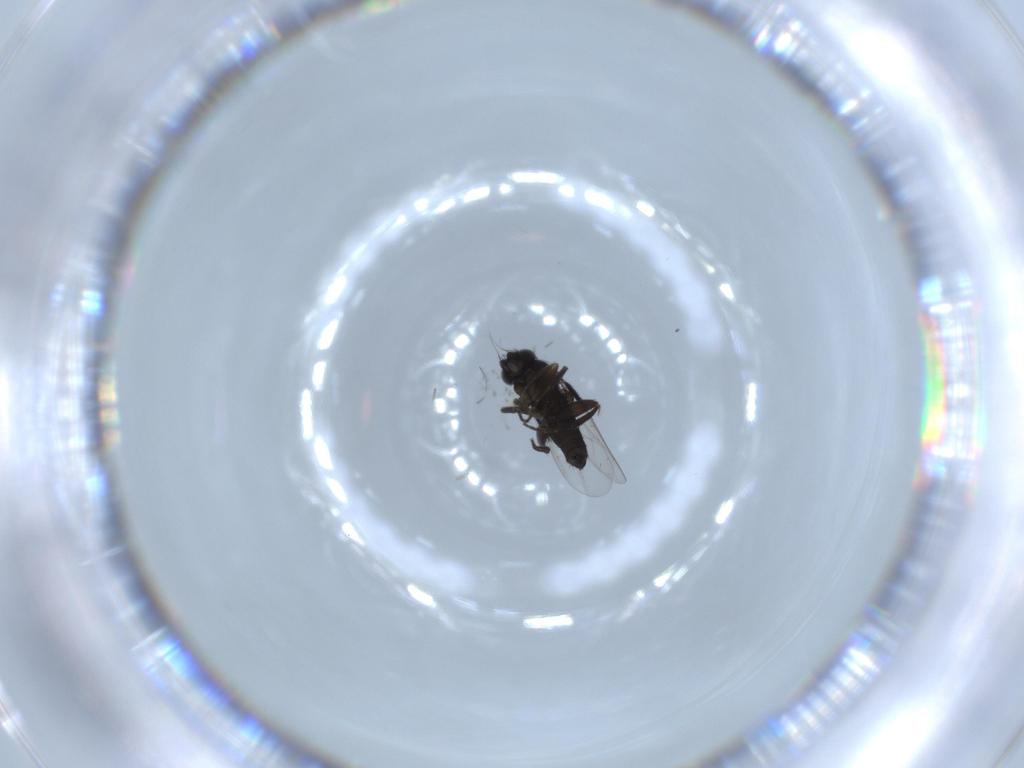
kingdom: Animalia
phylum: Arthropoda
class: Insecta
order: Diptera
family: Phoridae
